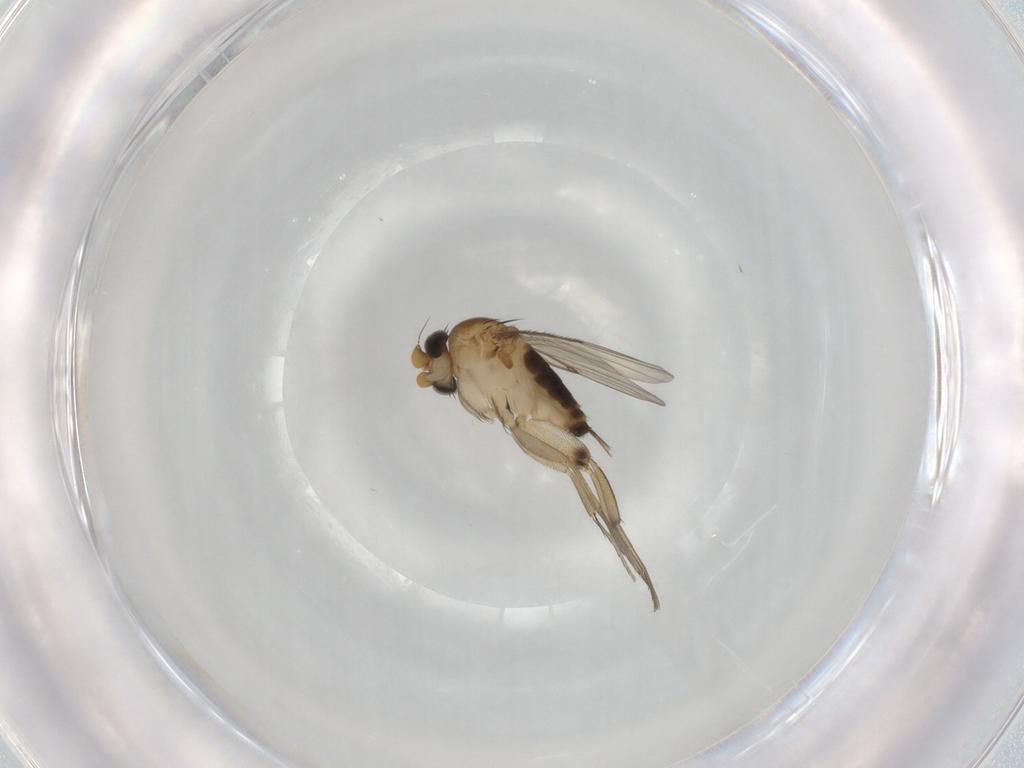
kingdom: Animalia
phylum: Arthropoda
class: Insecta
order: Diptera
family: Phoridae
